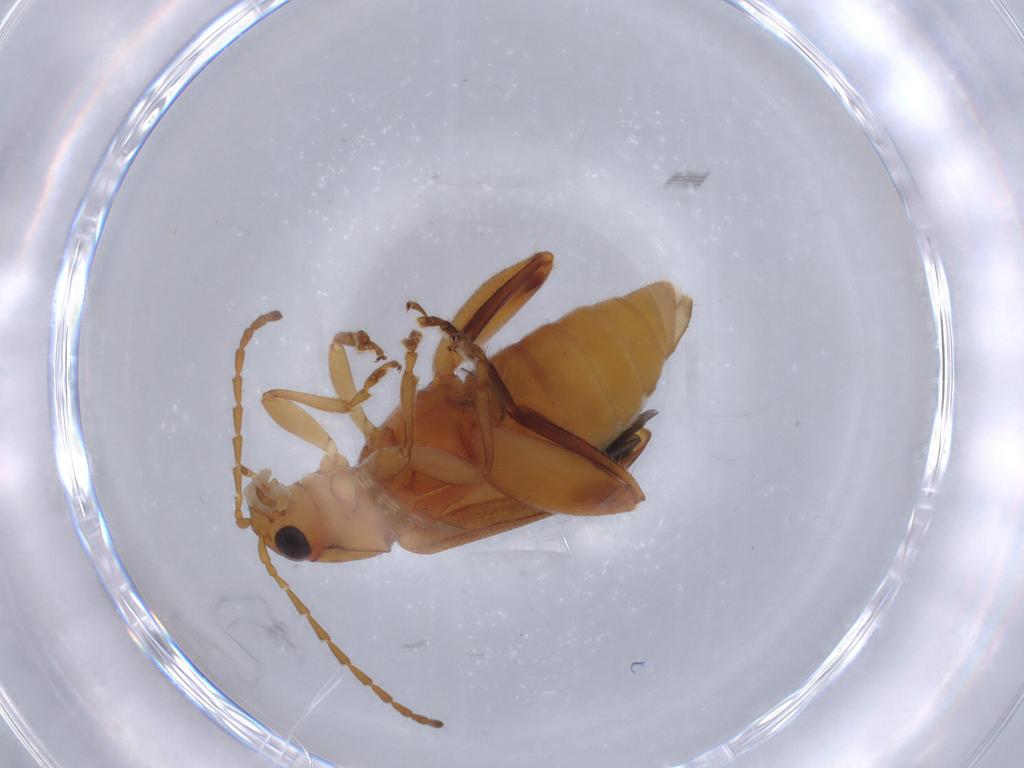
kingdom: Animalia
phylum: Arthropoda
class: Insecta
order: Coleoptera
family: Chrysomelidae
